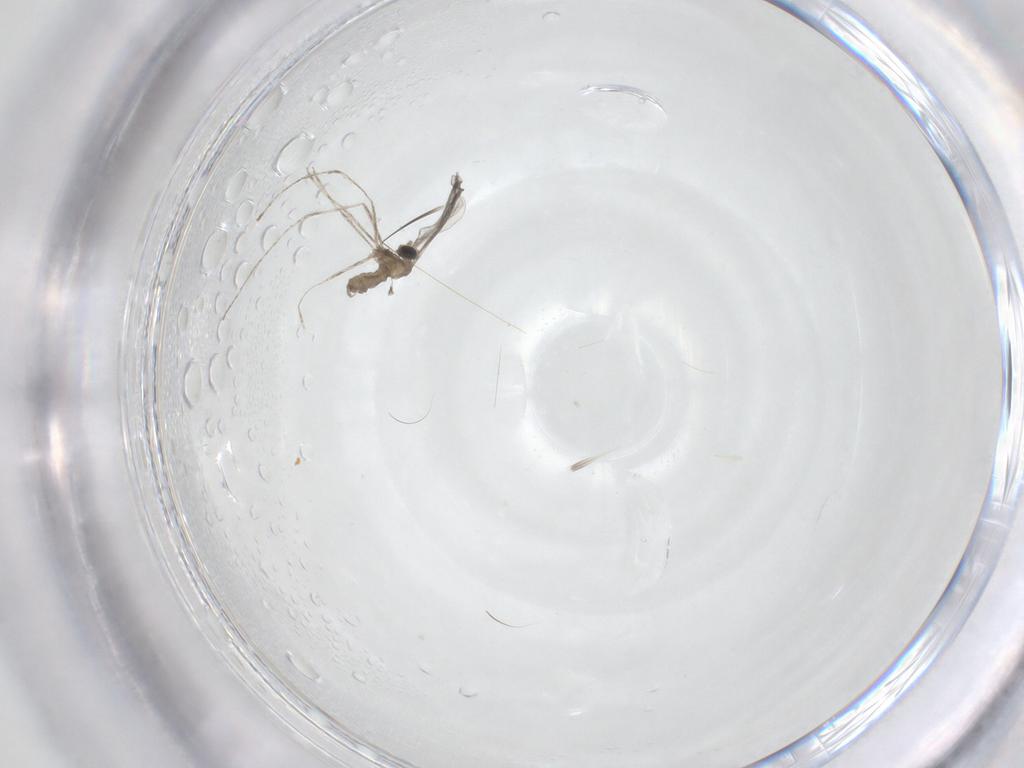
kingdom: Animalia
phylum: Arthropoda
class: Insecta
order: Diptera
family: Cecidomyiidae
